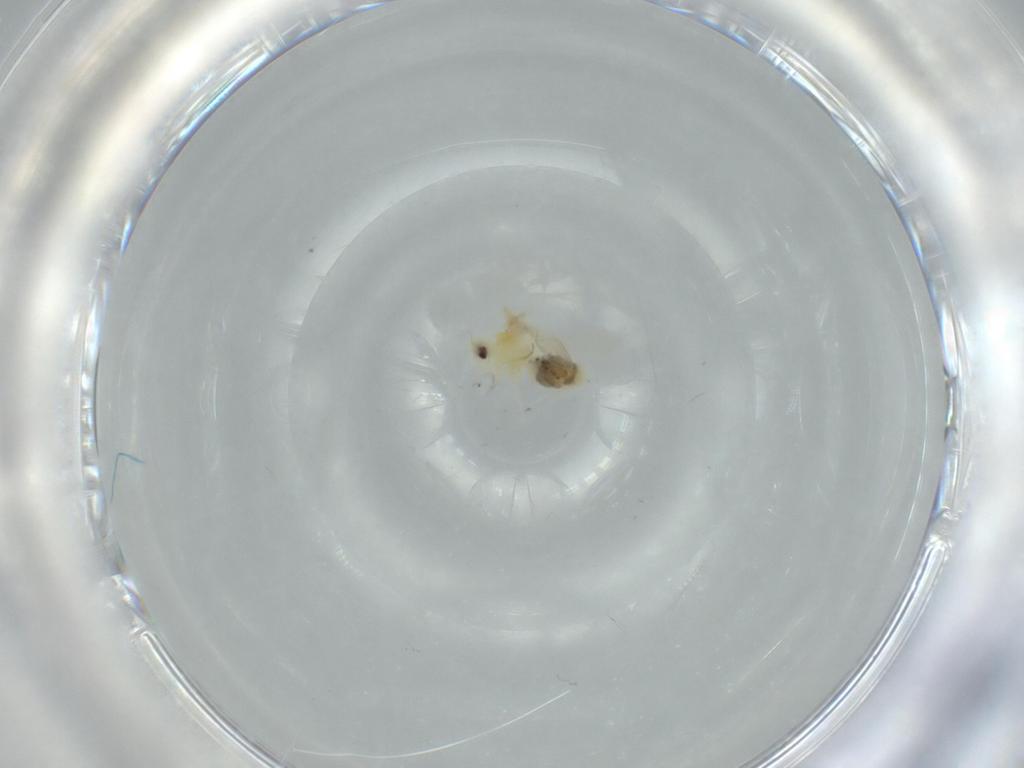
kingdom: Animalia
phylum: Arthropoda
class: Insecta
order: Hemiptera
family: Aleyrodidae
